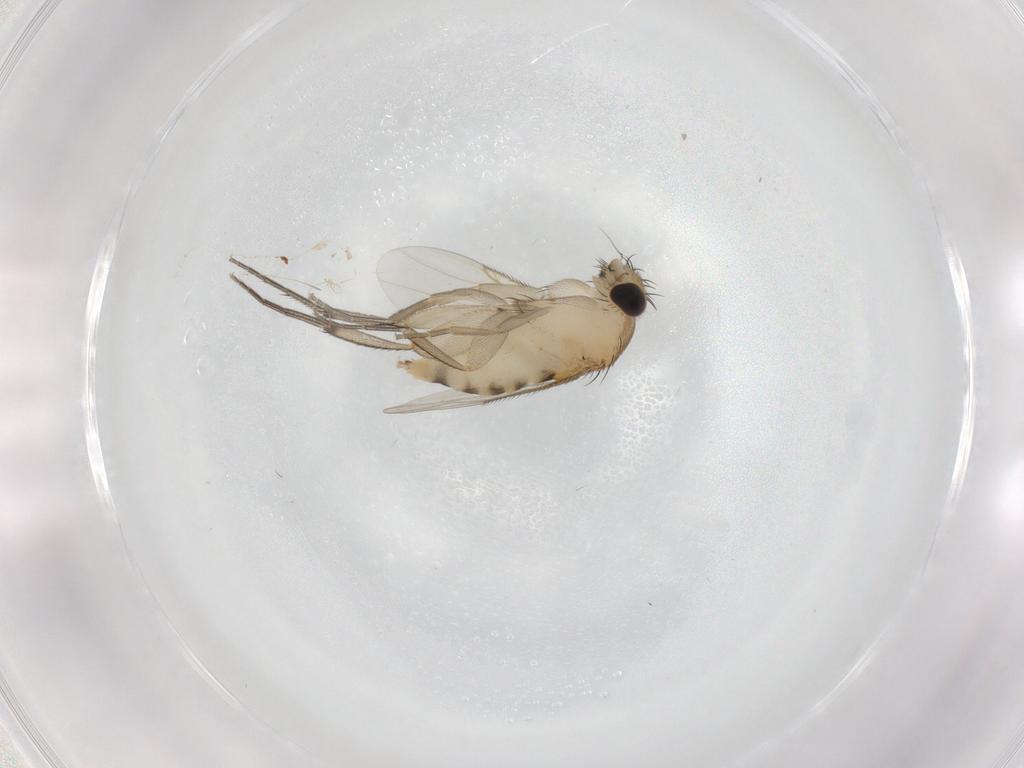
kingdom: Animalia
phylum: Arthropoda
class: Insecta
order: Diptera
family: Phoridae
